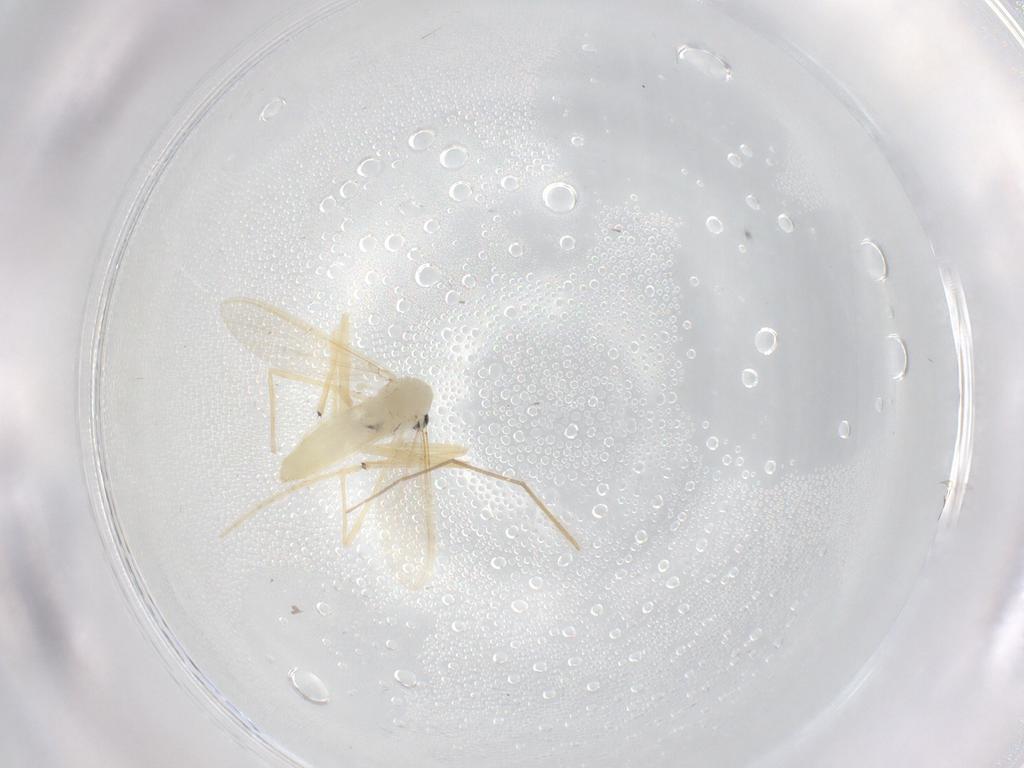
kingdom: Animalia
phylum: Arthropoda
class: Insecta
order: Diptera
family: Chironomidae
